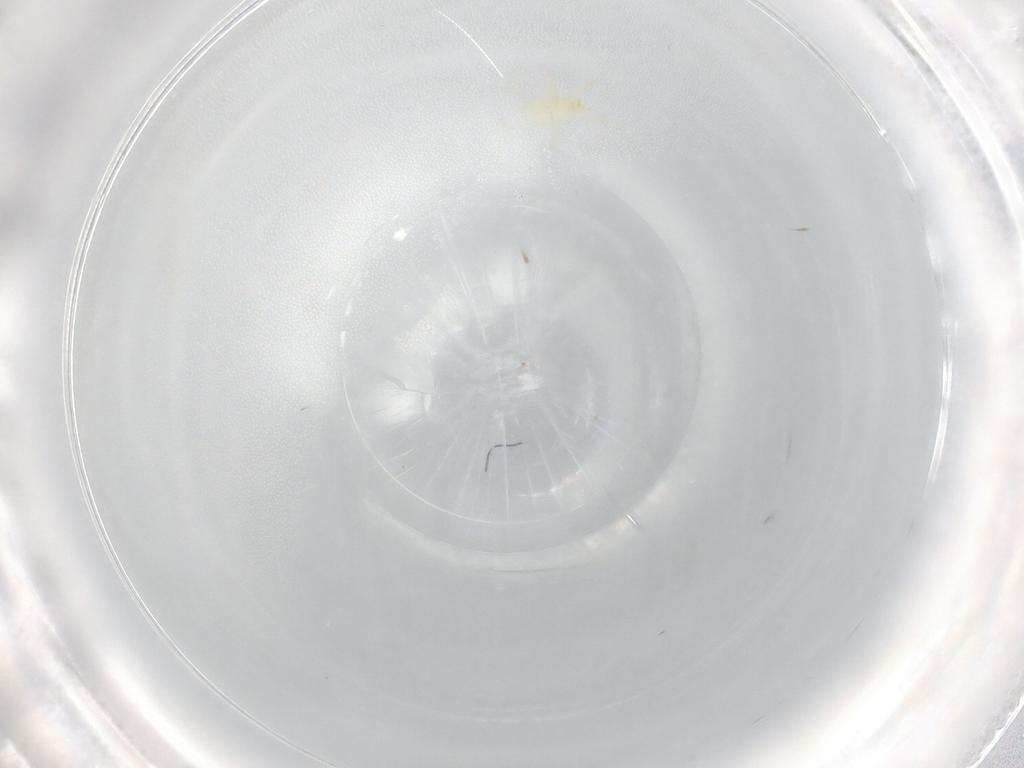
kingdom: Animalia
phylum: Arthropoda
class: Arachnida
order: Trombidiformes
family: Erythraeidae
